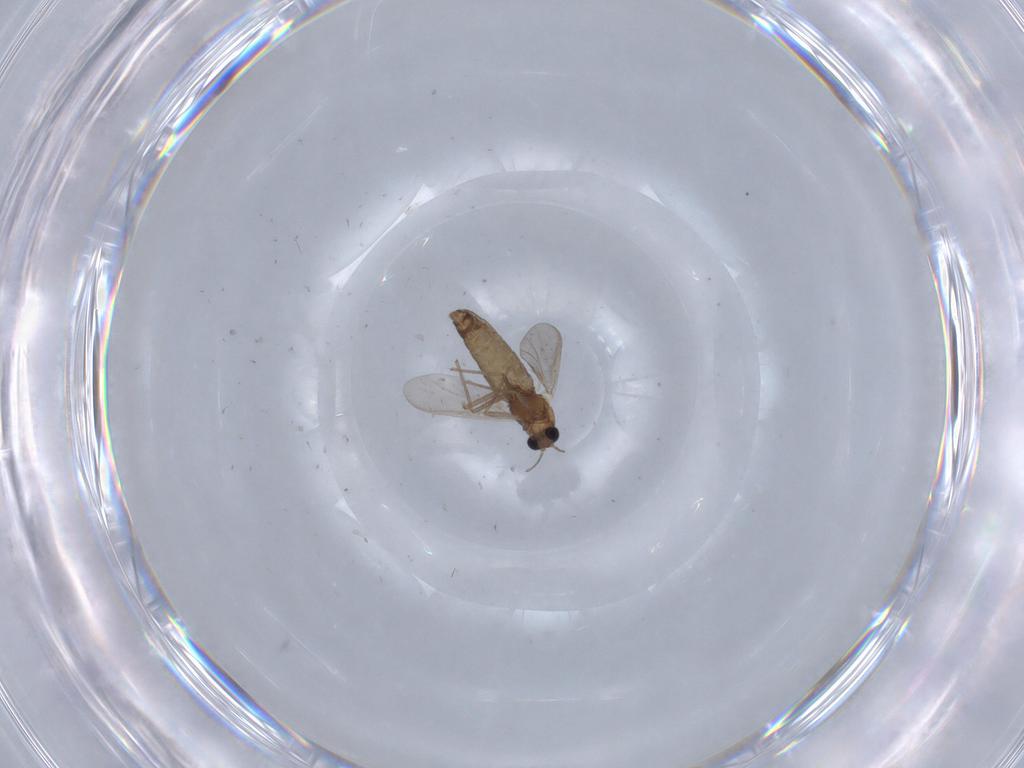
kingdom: Animalia
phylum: Arthropoda
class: Insecta
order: Diptera
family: Chironomidae
